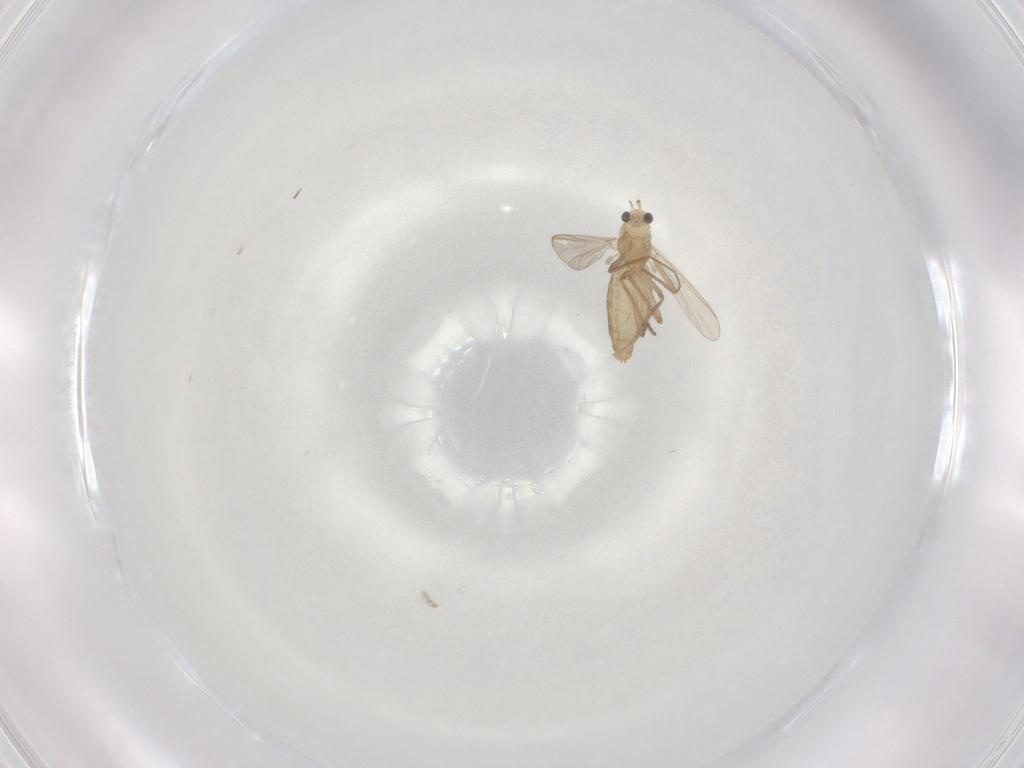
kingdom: Animalia
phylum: Arthropoda
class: Insecta
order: Diptera
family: Chironomidae
